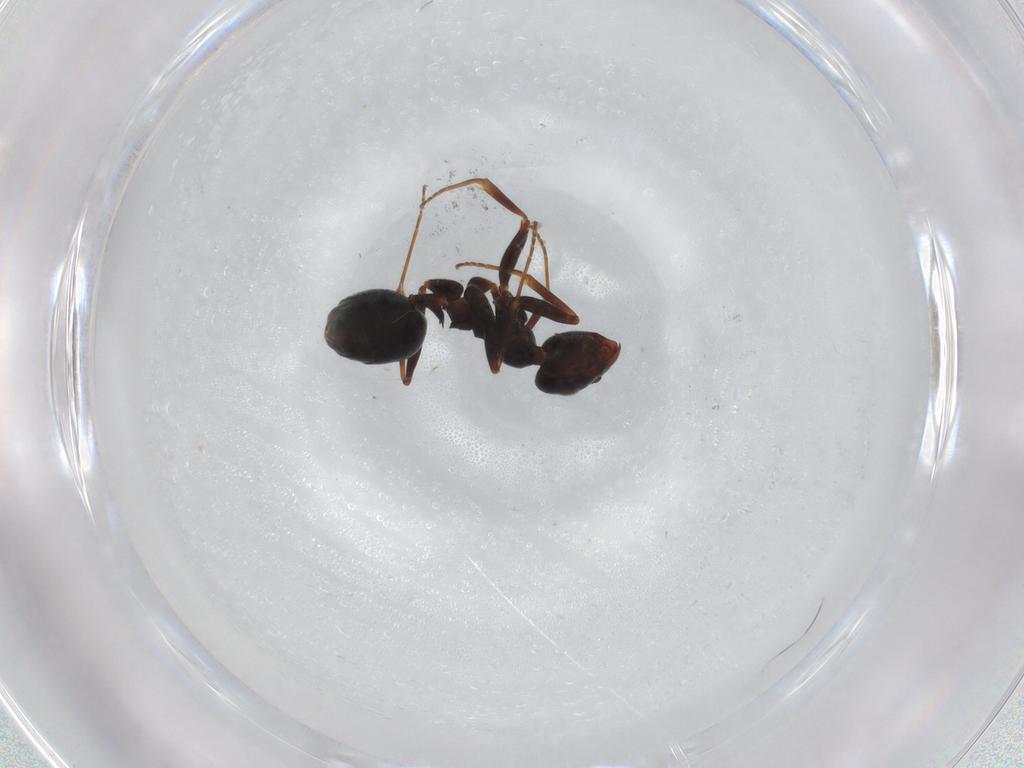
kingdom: Animalia
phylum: Arthropoda
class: Insecta
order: Hymenoptera
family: Formicidae
